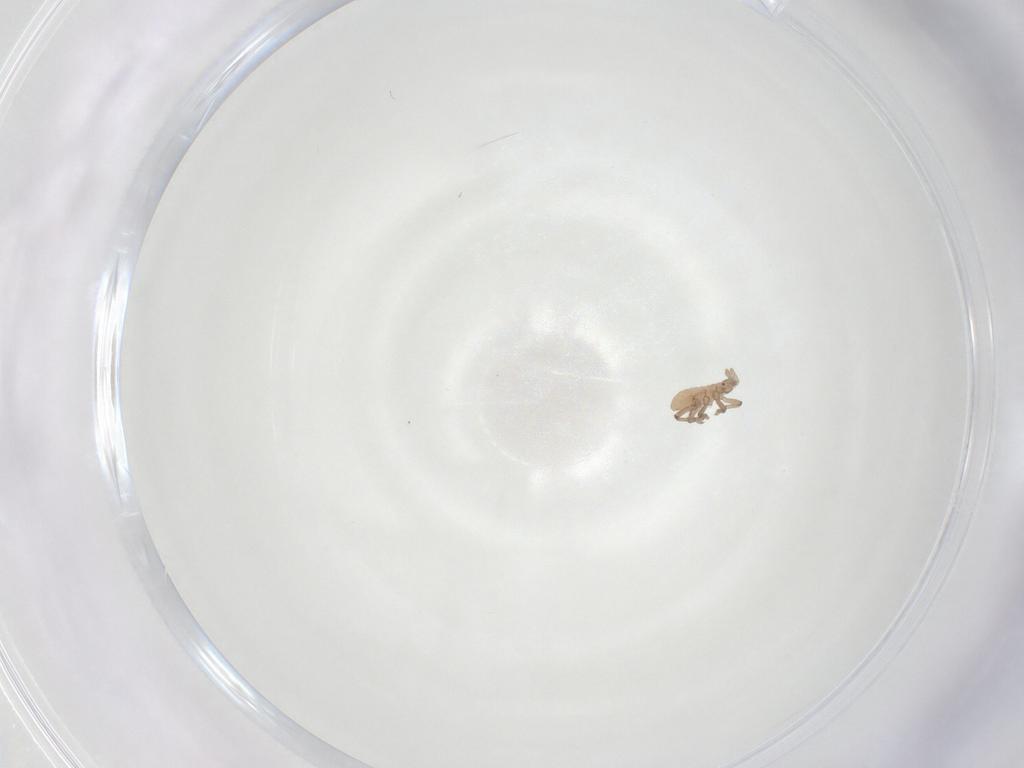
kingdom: Animalia
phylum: Arthropoda
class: Insecta
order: Hemiptera
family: Aphididae
